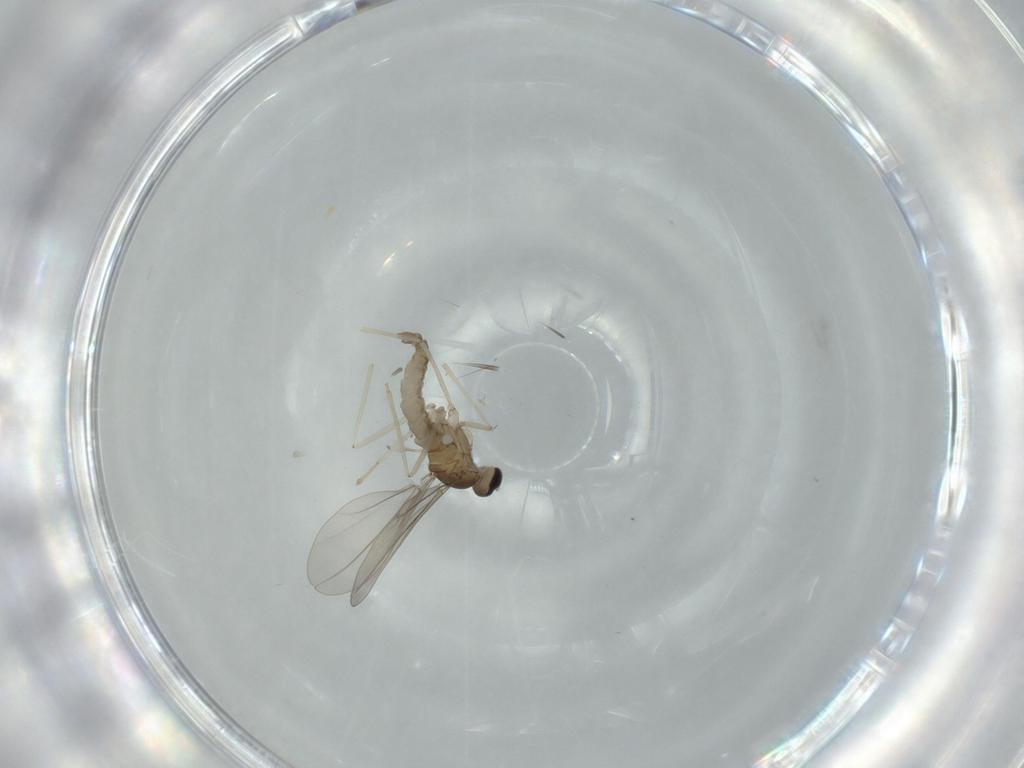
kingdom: Animalia
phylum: Arthropoda
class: Insecta
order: Diptera
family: Cecidomyiidae
